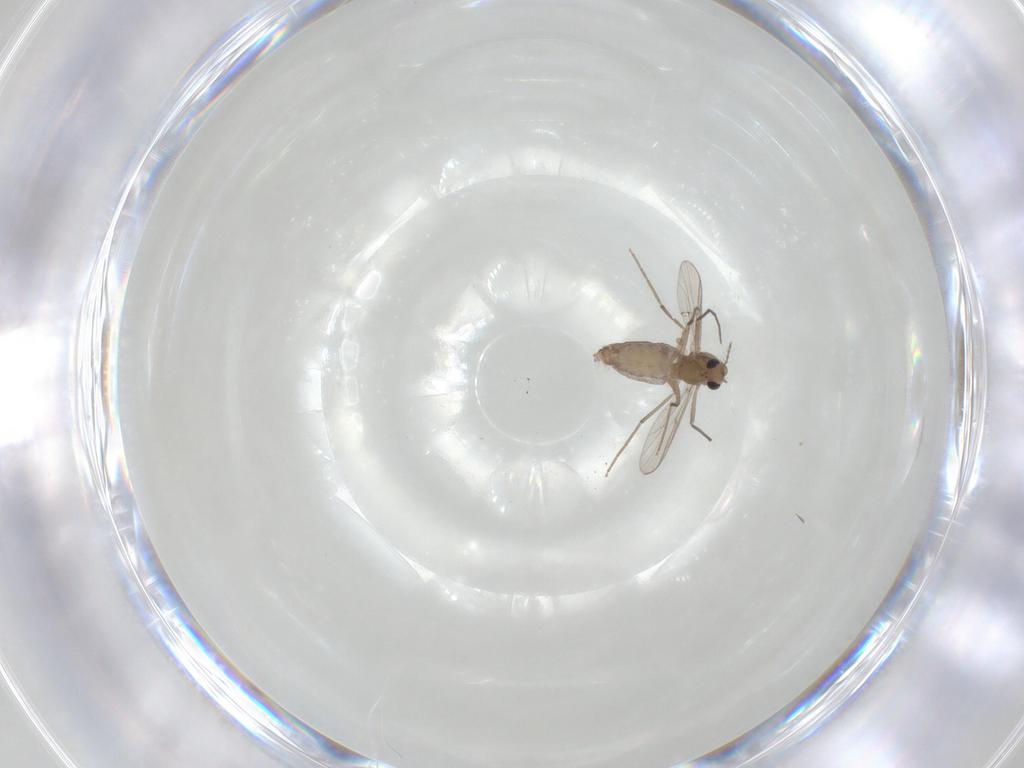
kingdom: Animalia
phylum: Arthropoda
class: Insecta
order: Diptera
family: Chironomidae
